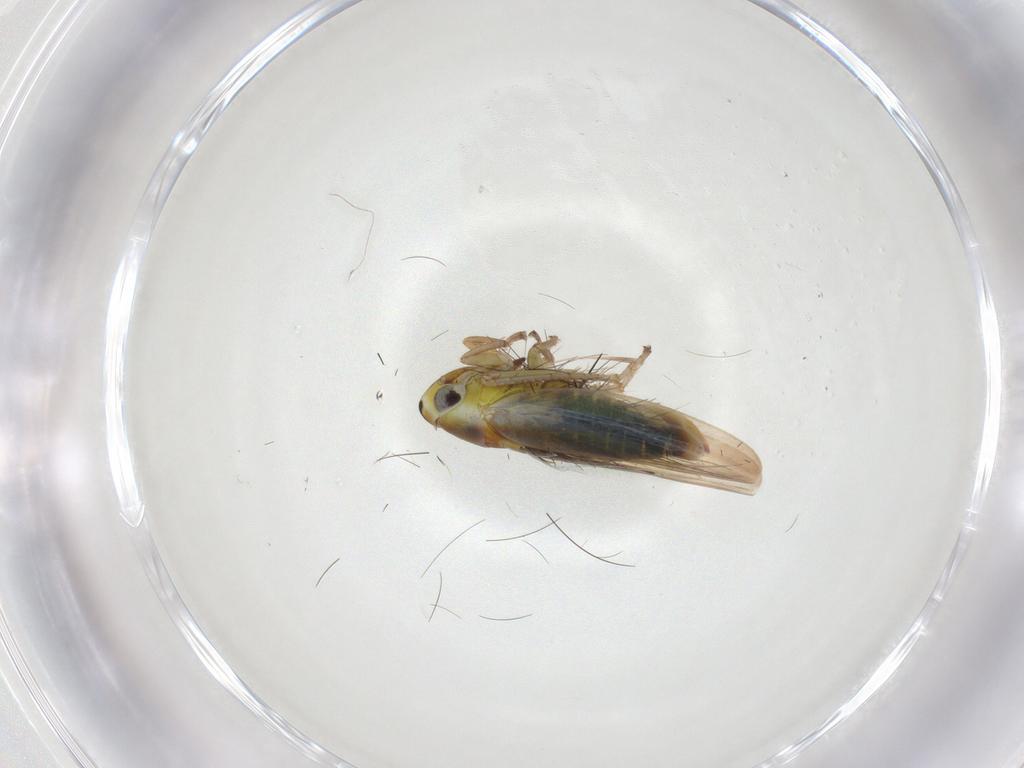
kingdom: Animalia
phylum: Arthropoda
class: Insecta
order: Hemiptera
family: Cicadellidae
